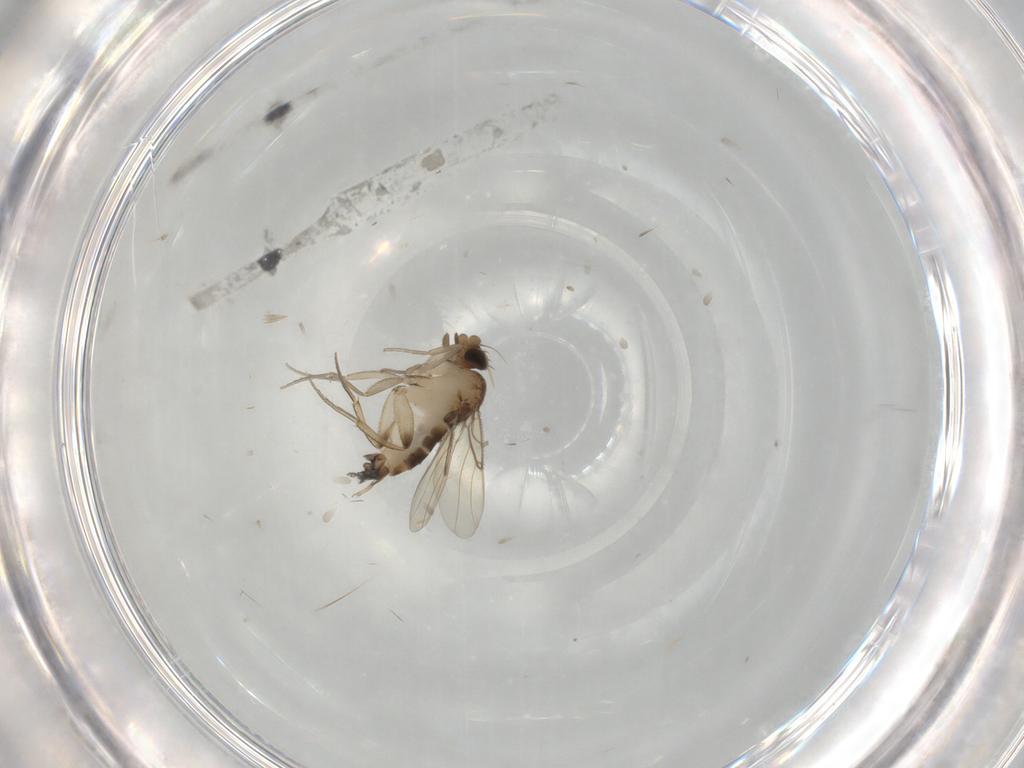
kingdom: Animalia
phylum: Arthropoda
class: Insecta
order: Diptera
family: Phoridae
